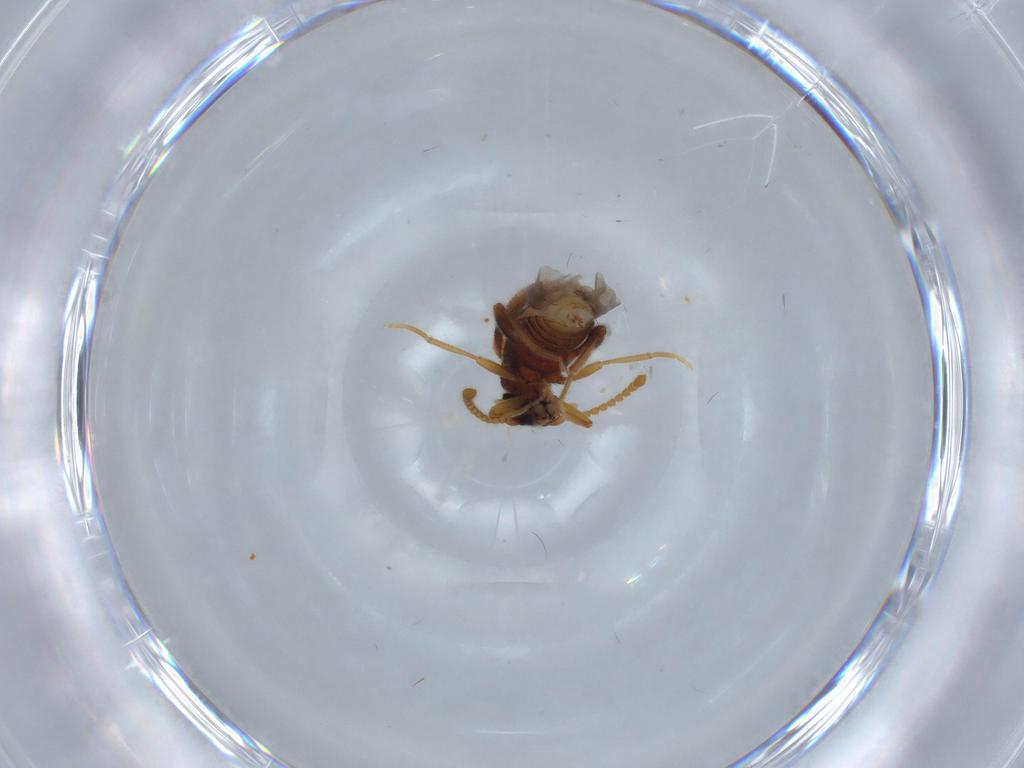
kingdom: Animalia
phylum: Arthropoda
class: Insecta
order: Coleoptera
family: Aderidae
